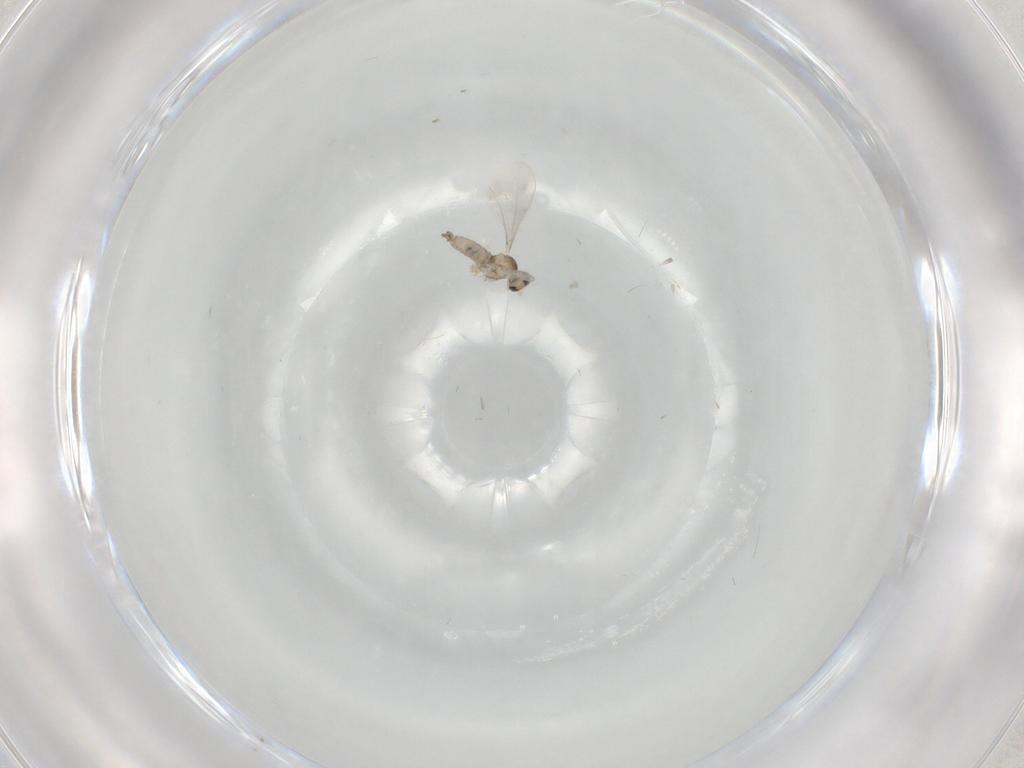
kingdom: Animalia
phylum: Arthropoda
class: Insecta
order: Diptera
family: Cecidomyiidae
